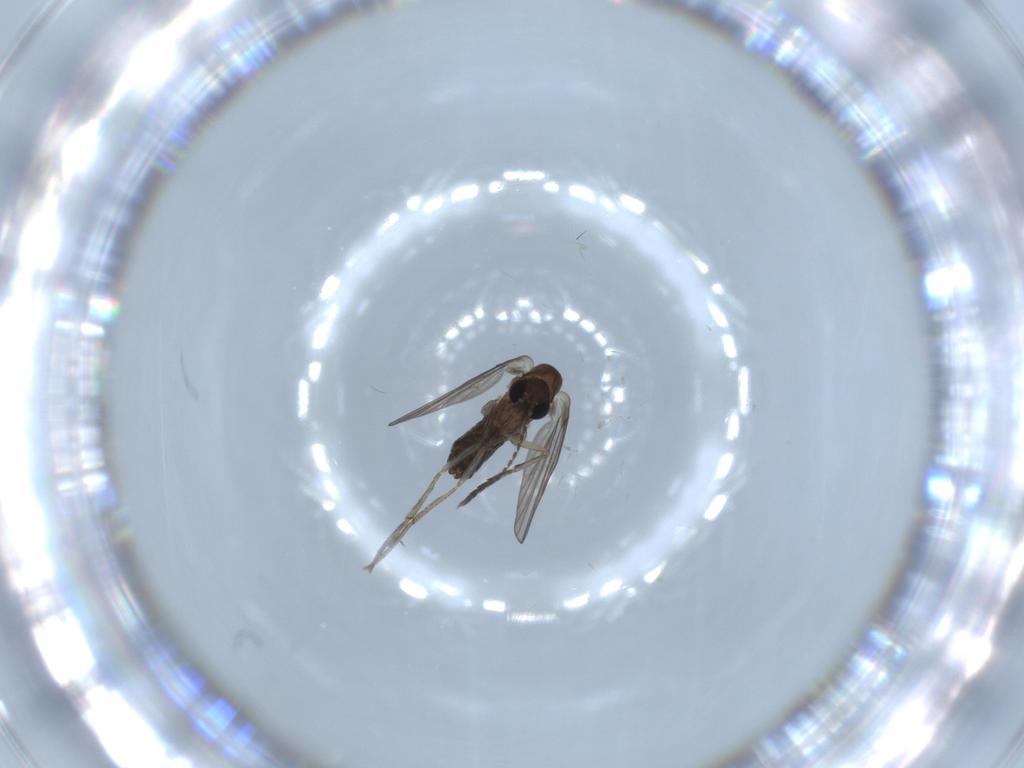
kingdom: Animalia
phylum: Arthropoda
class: Insecta
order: Diptera
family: Psychodidae
